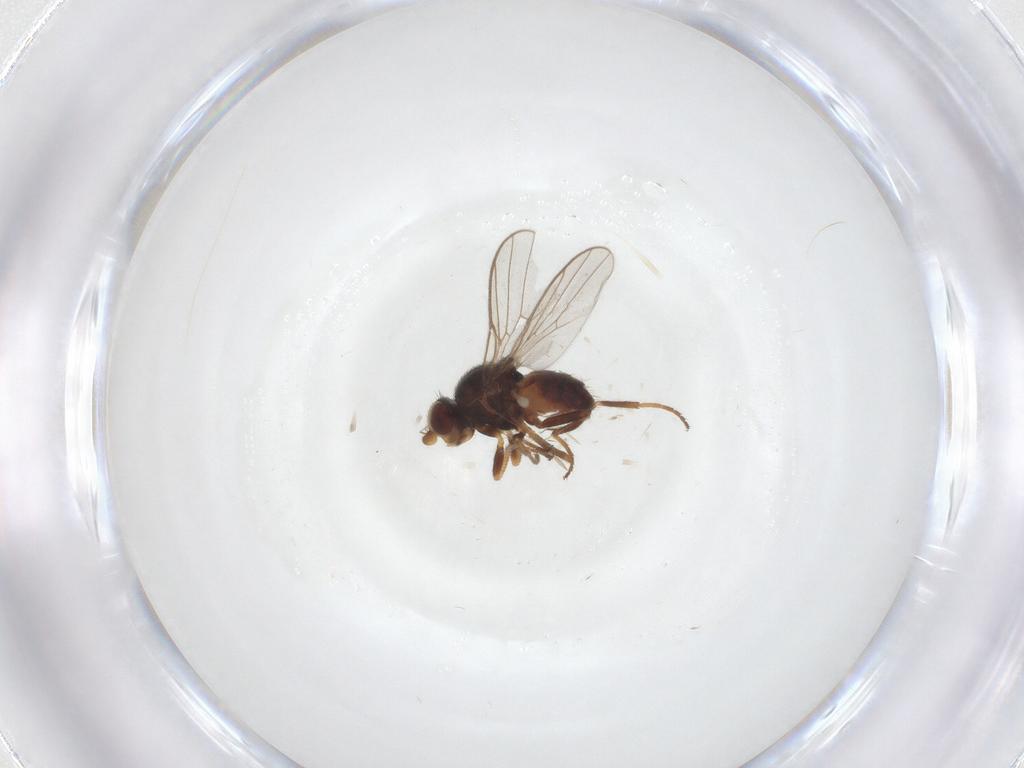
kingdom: Animalia
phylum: Arthropoda
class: Insecta
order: Diptera
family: Chloropidae
